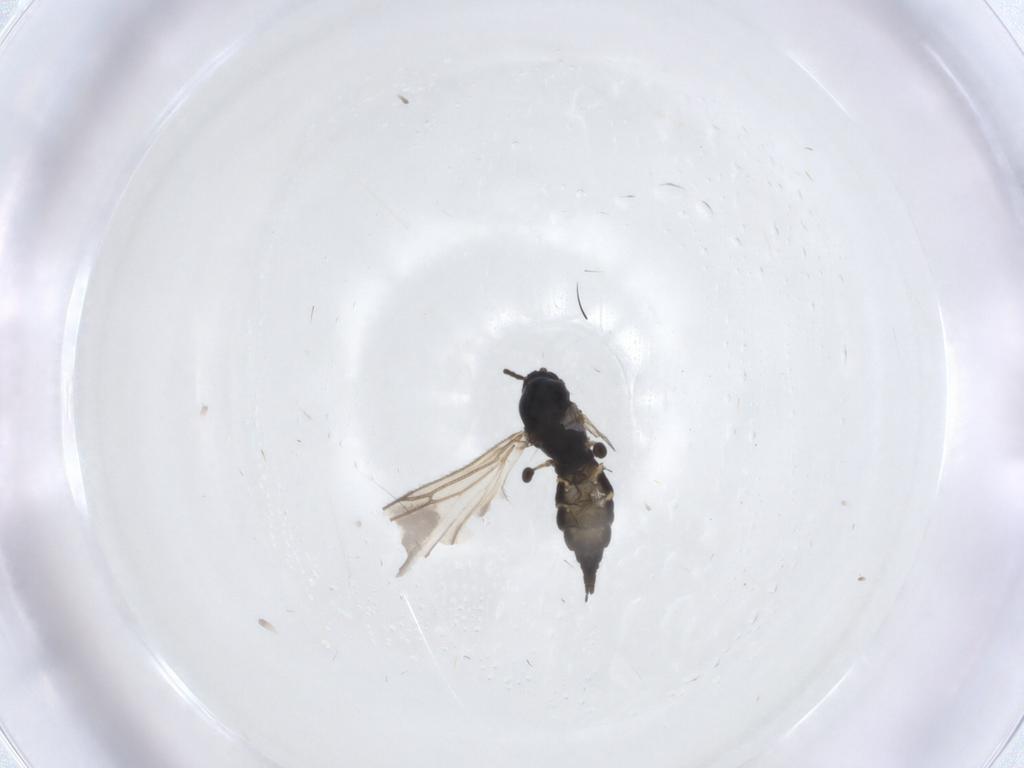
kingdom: Animalia
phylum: Arthropoda
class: Insecta
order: Diptera
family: Sciaridae
